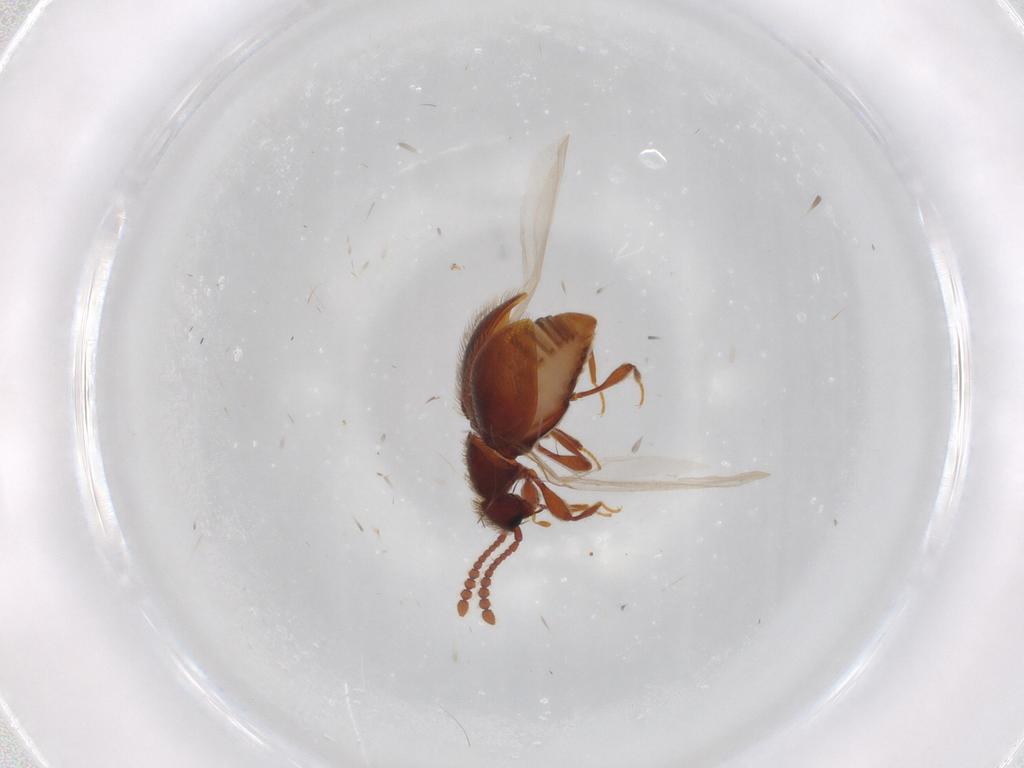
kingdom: Animalia
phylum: Arthropoda
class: Insecta
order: Coleoptera
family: Staphylinidae
